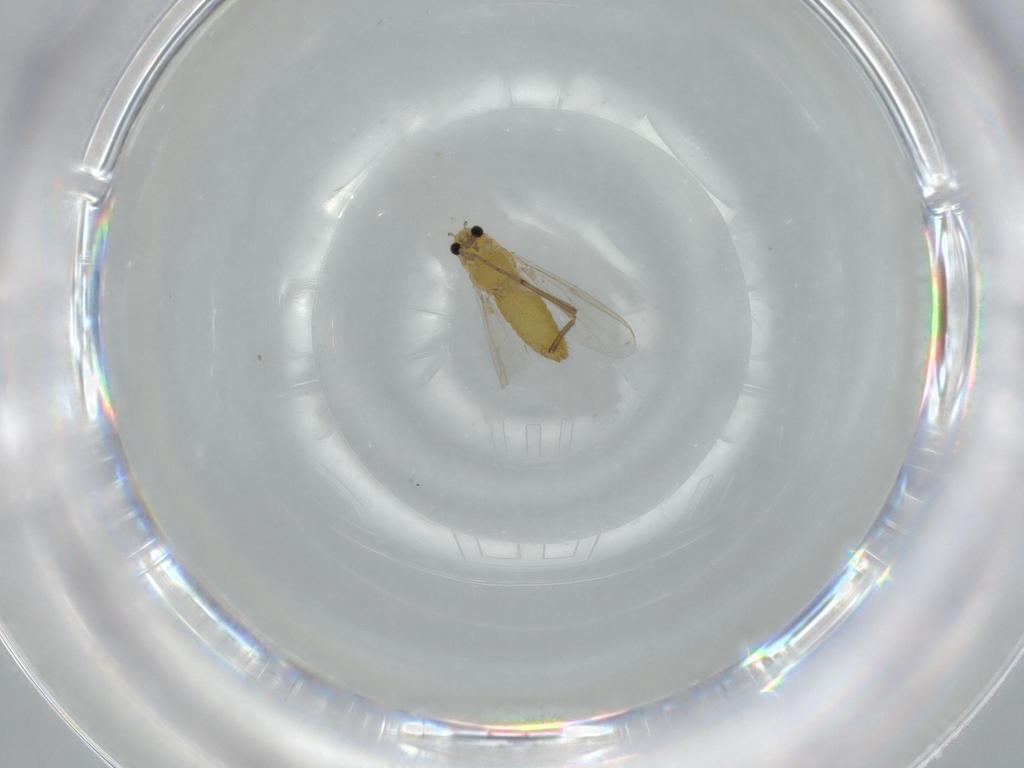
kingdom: Animalia
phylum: Arthropoda
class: Insecta
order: Diptera
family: Chironomidae
